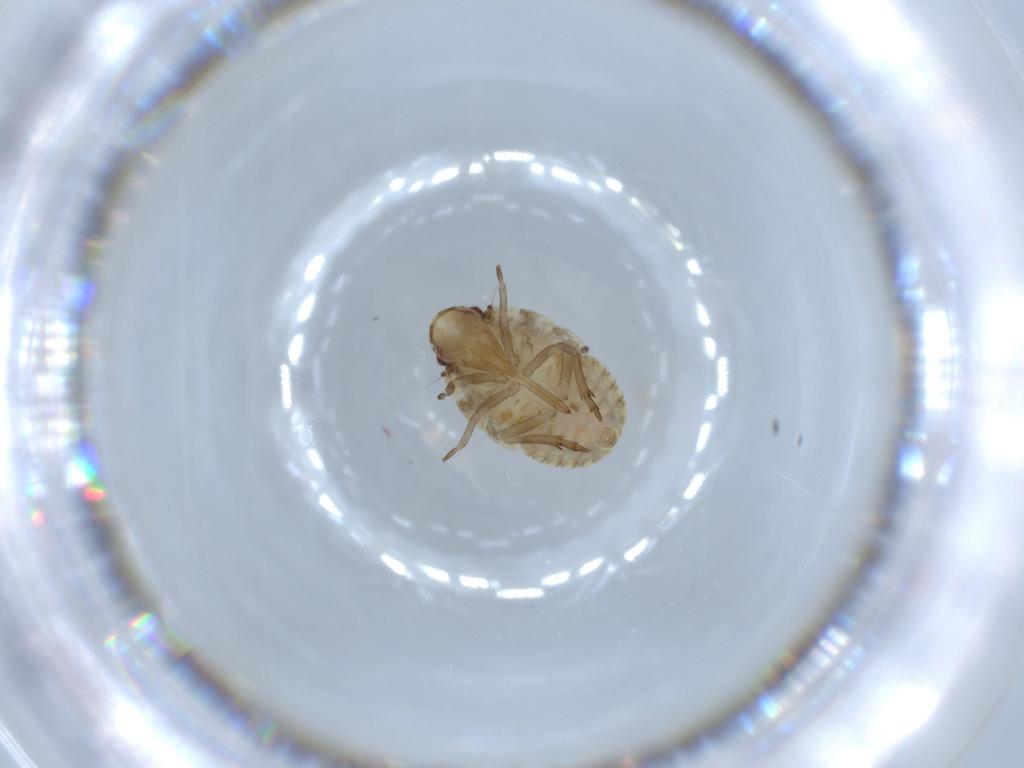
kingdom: Animalia
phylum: Arthropoda
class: Insecta
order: Hemiptera
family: Flatidae
